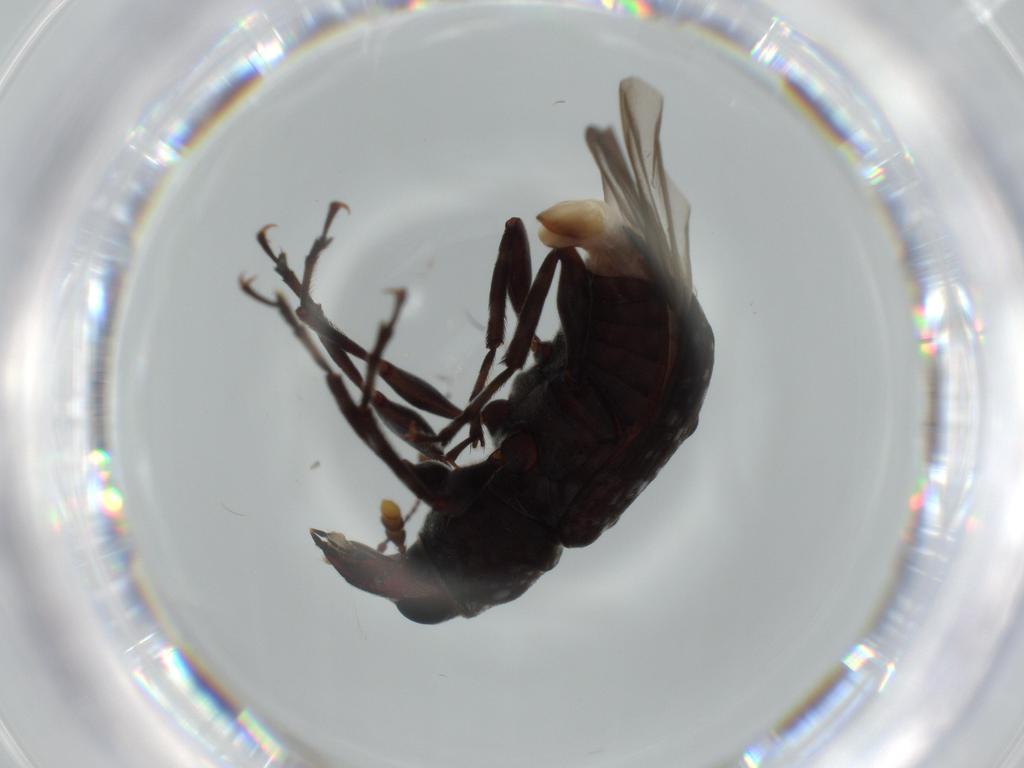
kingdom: Animalia
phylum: Arthropoda
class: Insecta
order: Coleoptera
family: Anthribidae
